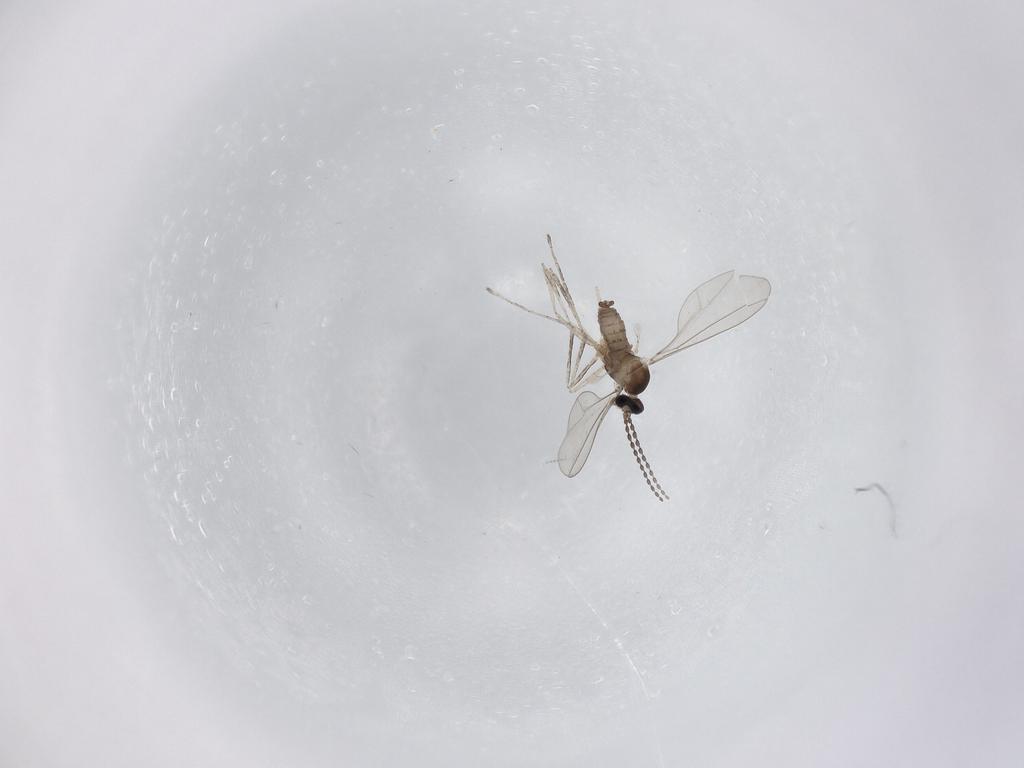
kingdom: Animalia
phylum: Arthropoda
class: Insecta
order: Diptera
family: Cecidomyiidae
